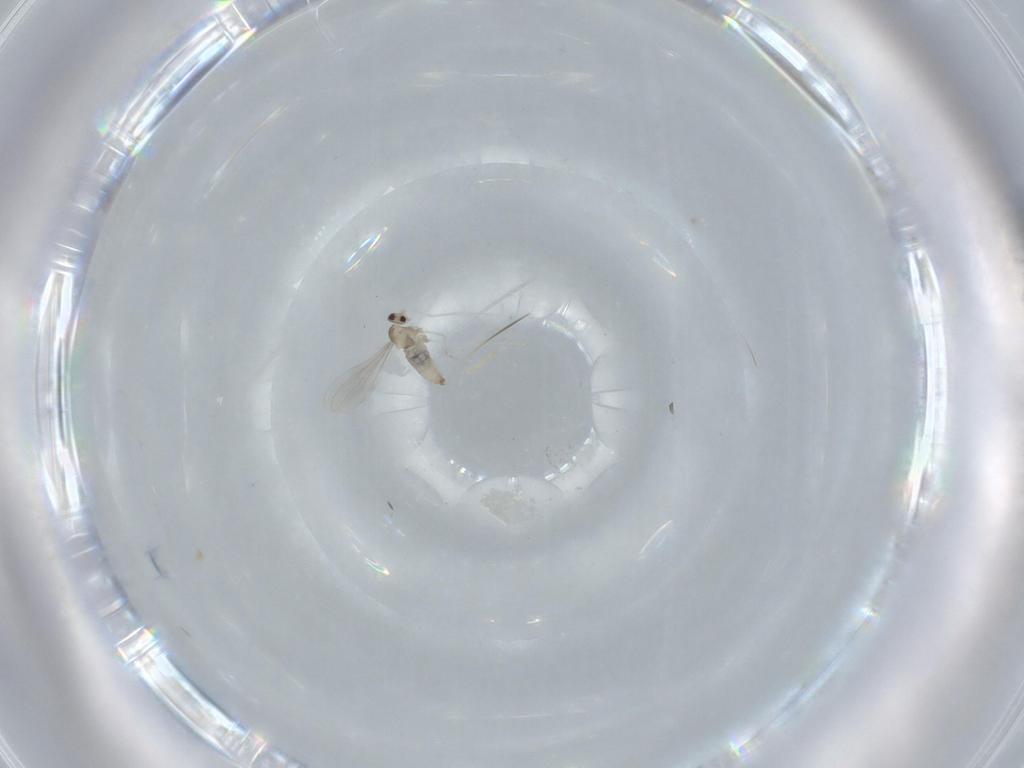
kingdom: Animalia
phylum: Arthropoda
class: Insecta
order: Diptera
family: Cecidomyiidae
